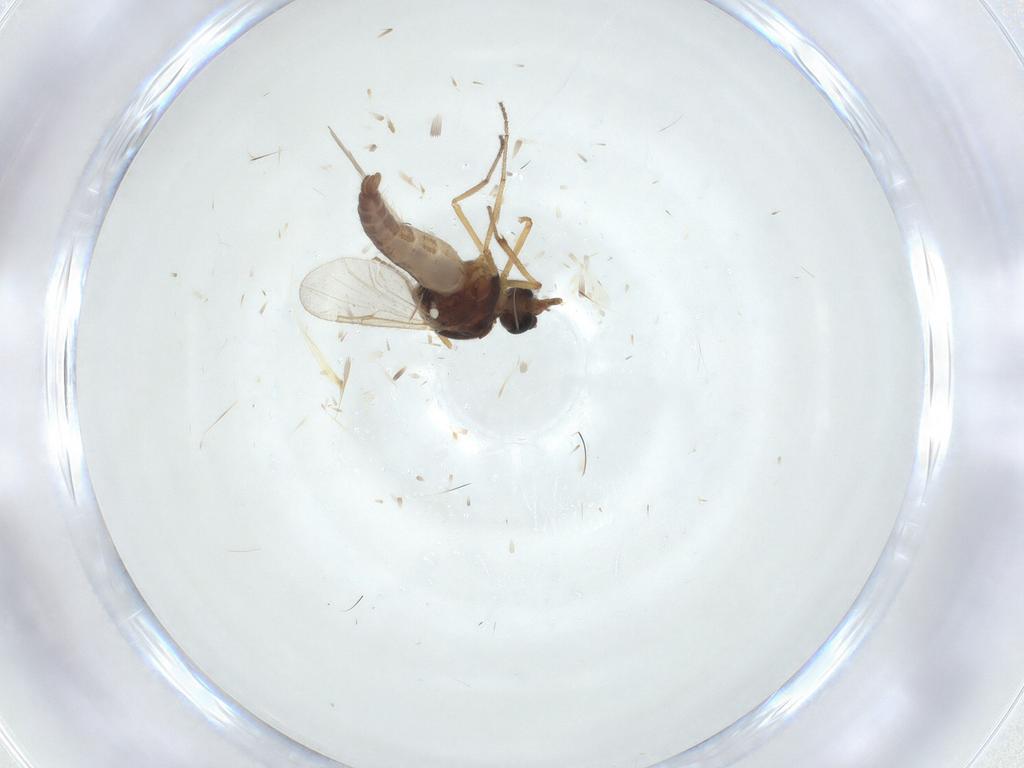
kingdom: Animalia
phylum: Arthropoda
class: Insecta
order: Diptera
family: Ceratopogonidae
